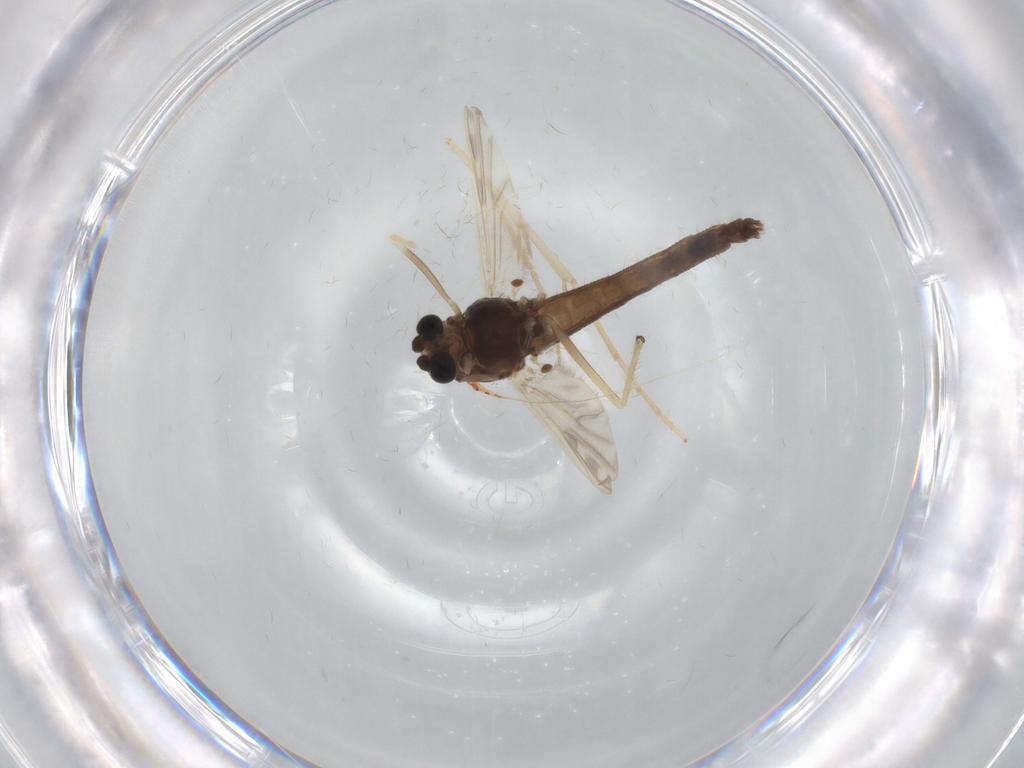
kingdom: Animalia
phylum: Arthropoda
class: Insecta
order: Diptera
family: Chironomidae
